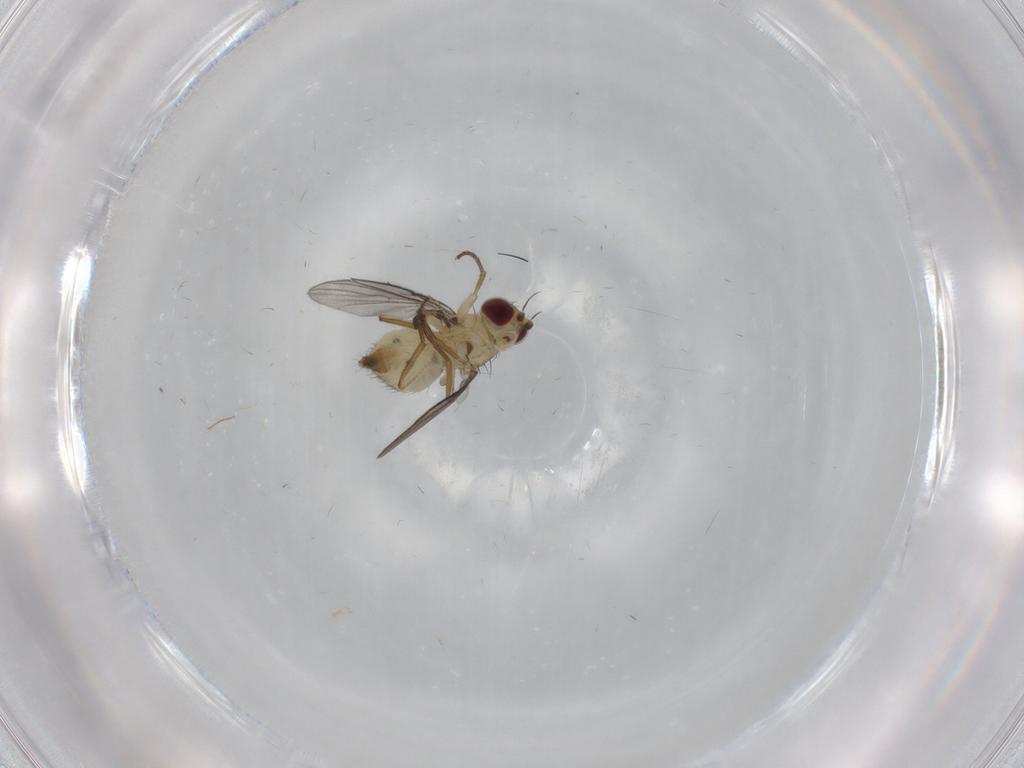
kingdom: Animalia
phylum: Arthropoda
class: Insecta
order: Diptera
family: Agromyzidae
